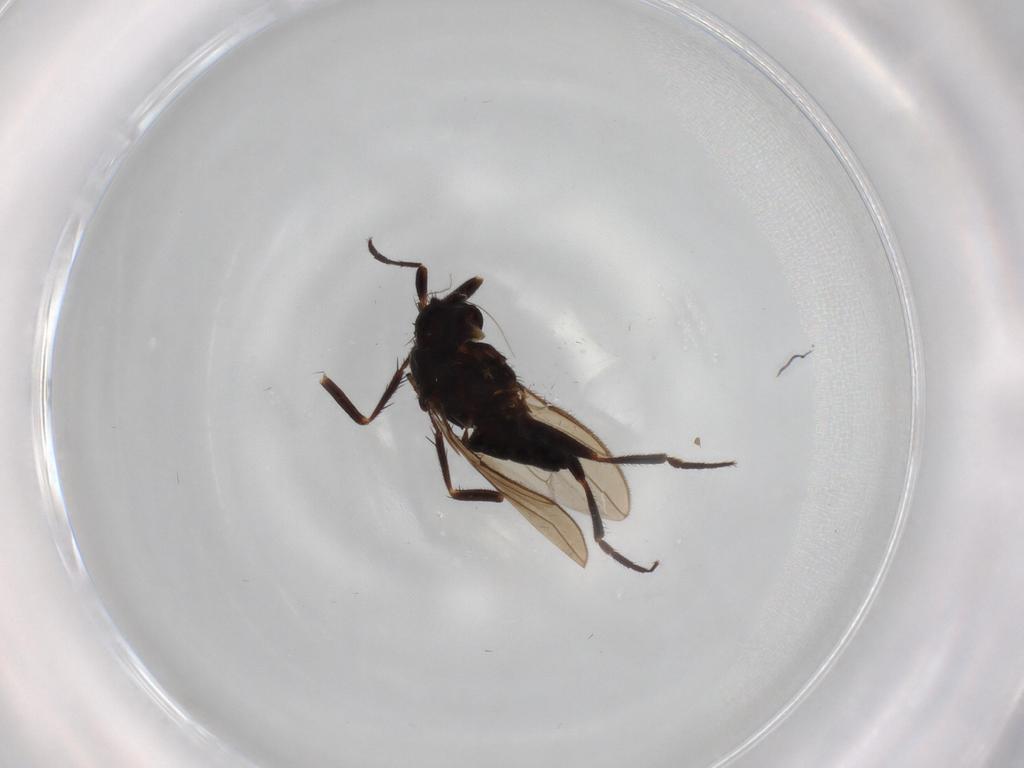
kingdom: Animalia
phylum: Arthropoda
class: Insecta
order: Diptera
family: Sphaeroceridae
